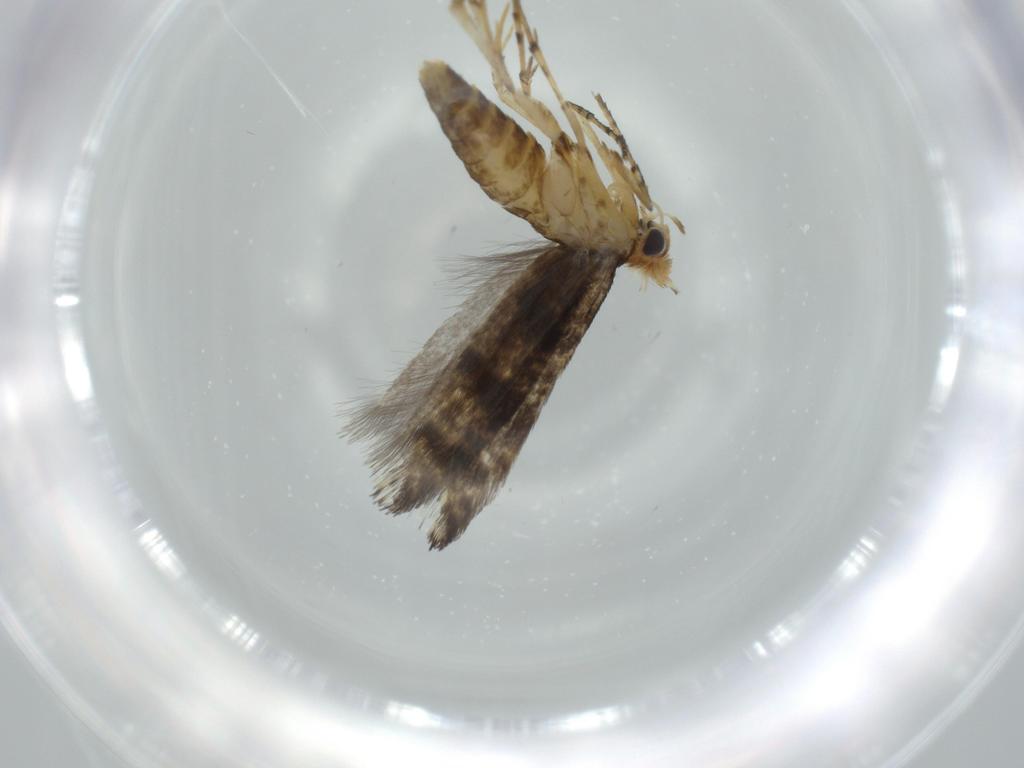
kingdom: Animalia
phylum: Arthropoda
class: Insecta
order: Lepidoptera
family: Argyresthiidae
